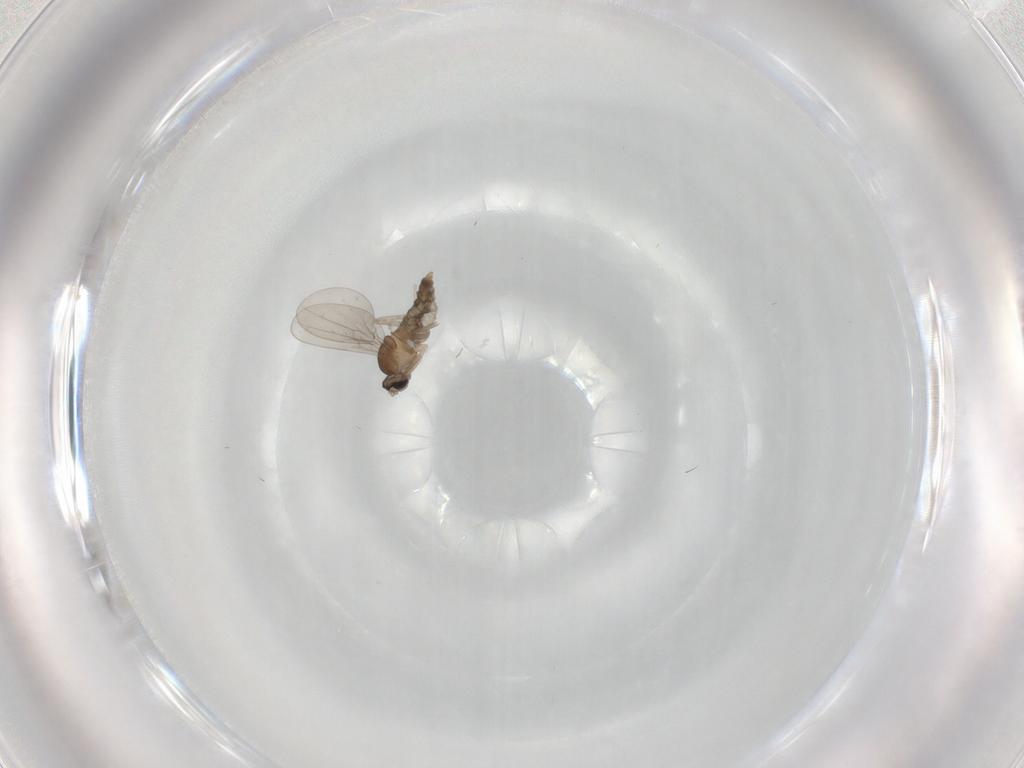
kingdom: Animalia
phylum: Arthropoda
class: Insecta
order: Diptera
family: Cecidomyiidae
